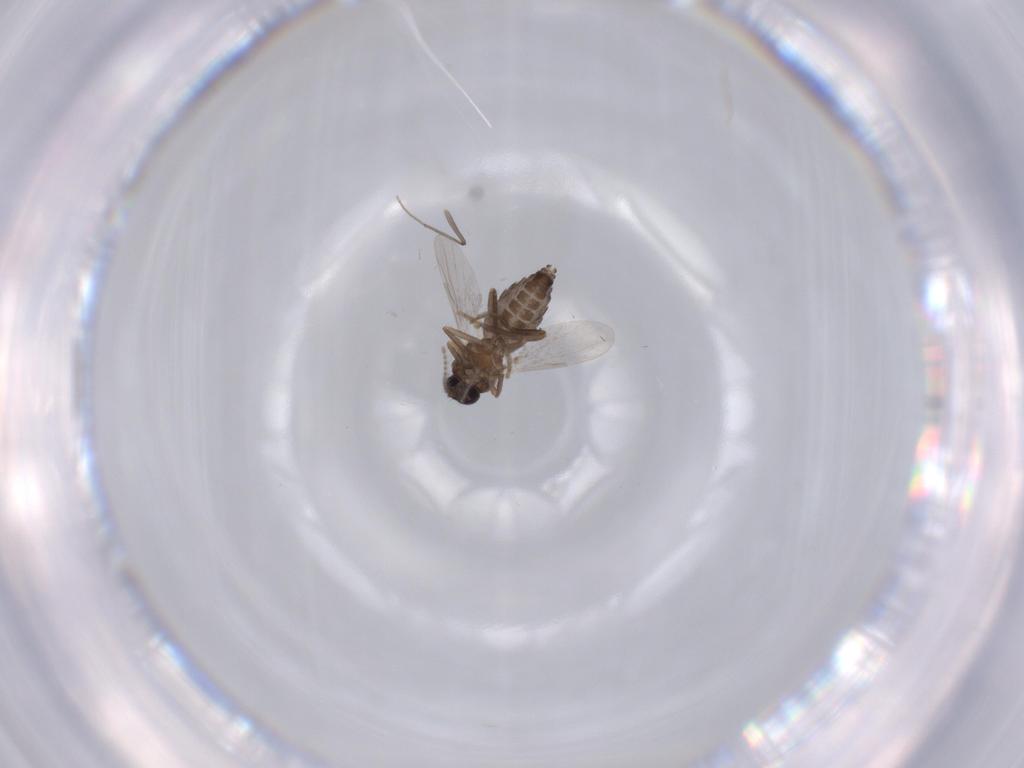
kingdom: Animalia
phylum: Arthropoda
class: Insecta
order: Diptera
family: Ceratopogonidae
